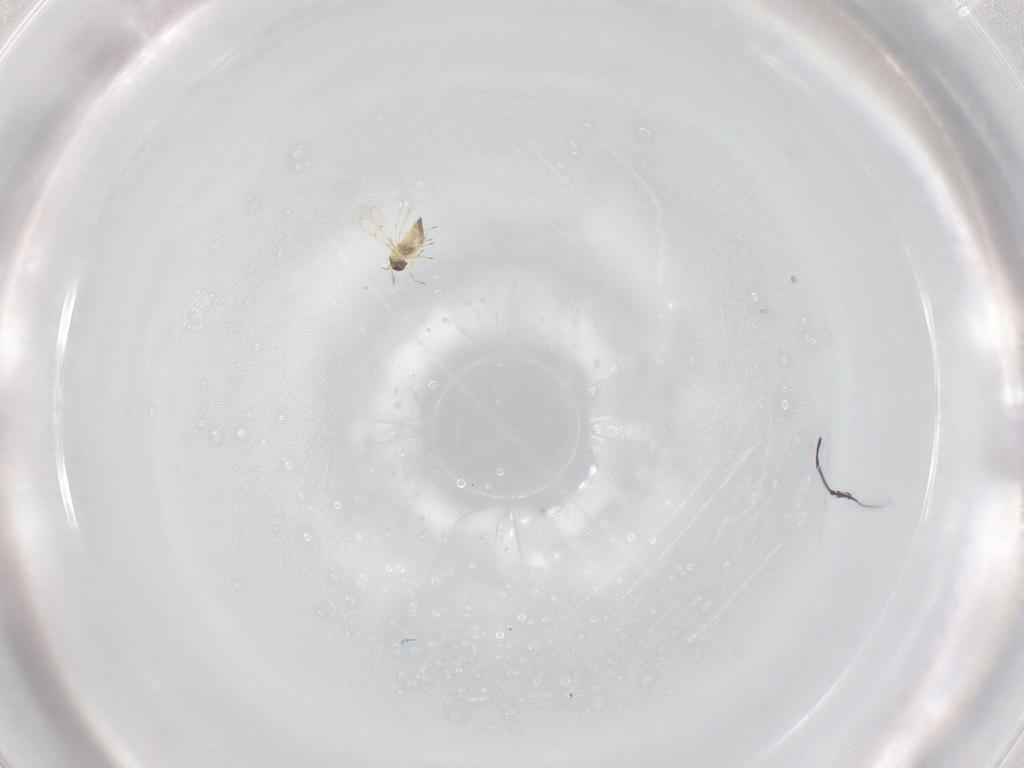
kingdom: Animalia
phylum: Arthropoda
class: Insecta
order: Hymenoptera
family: Trichogrammatidae
